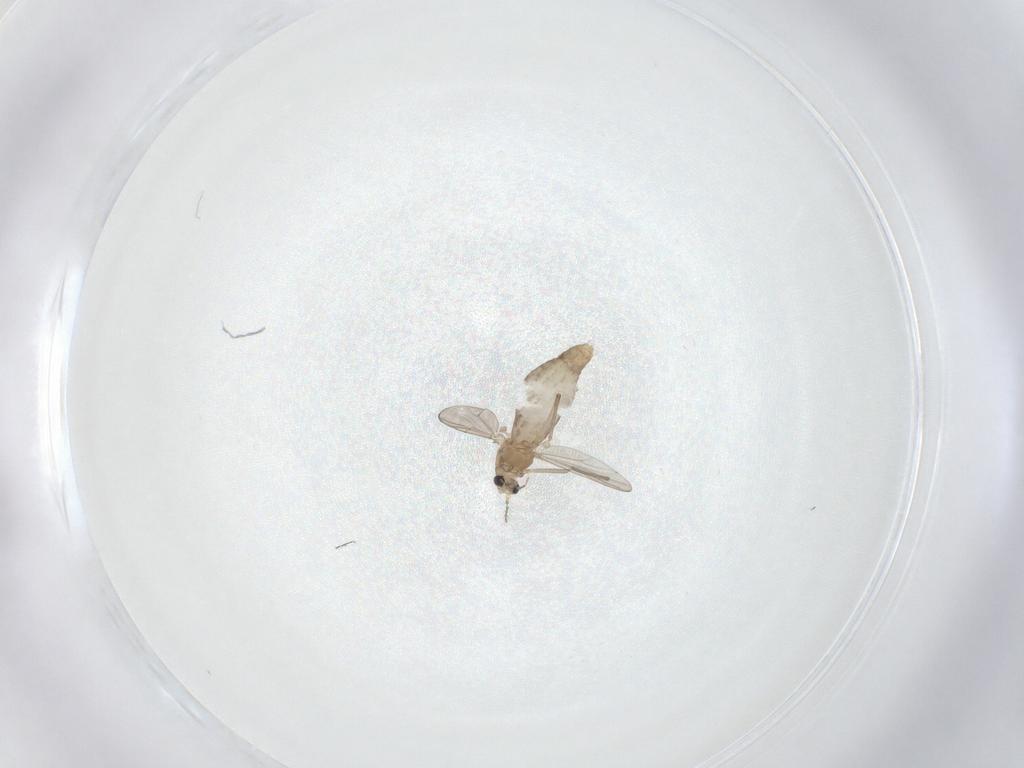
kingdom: Animalia
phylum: Arthropoda
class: Insecta
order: Diptera
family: Chironomidae
